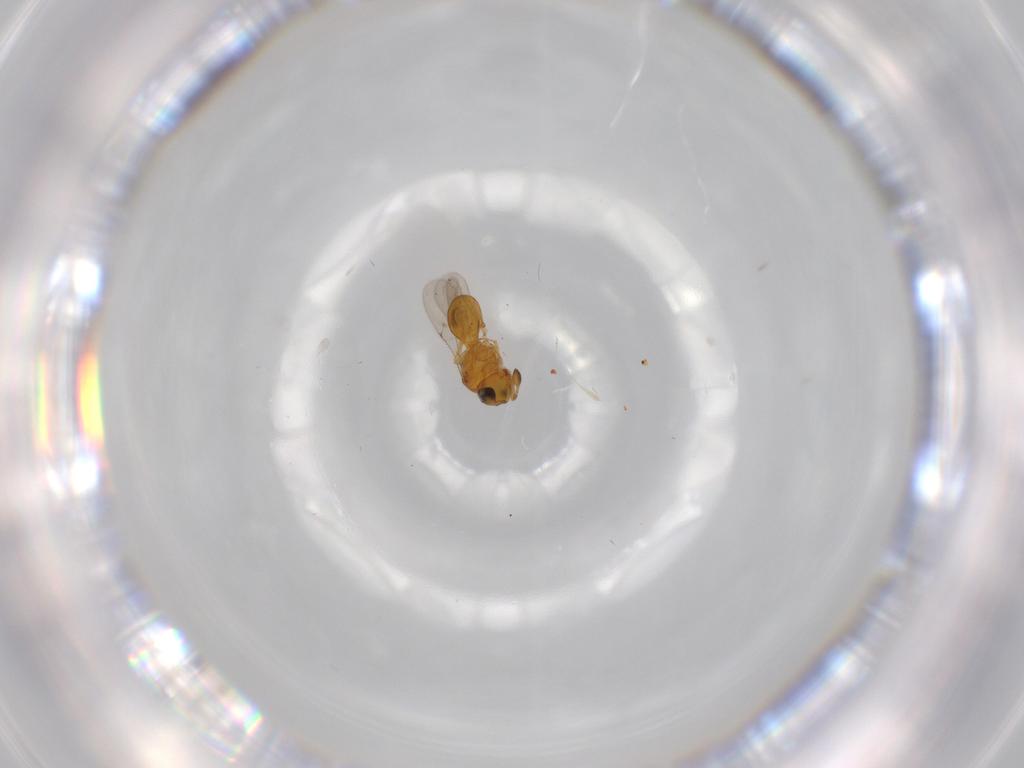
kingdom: Animalia
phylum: Arthropoda
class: Insecta
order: Hymenoptera
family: Scelionidae
